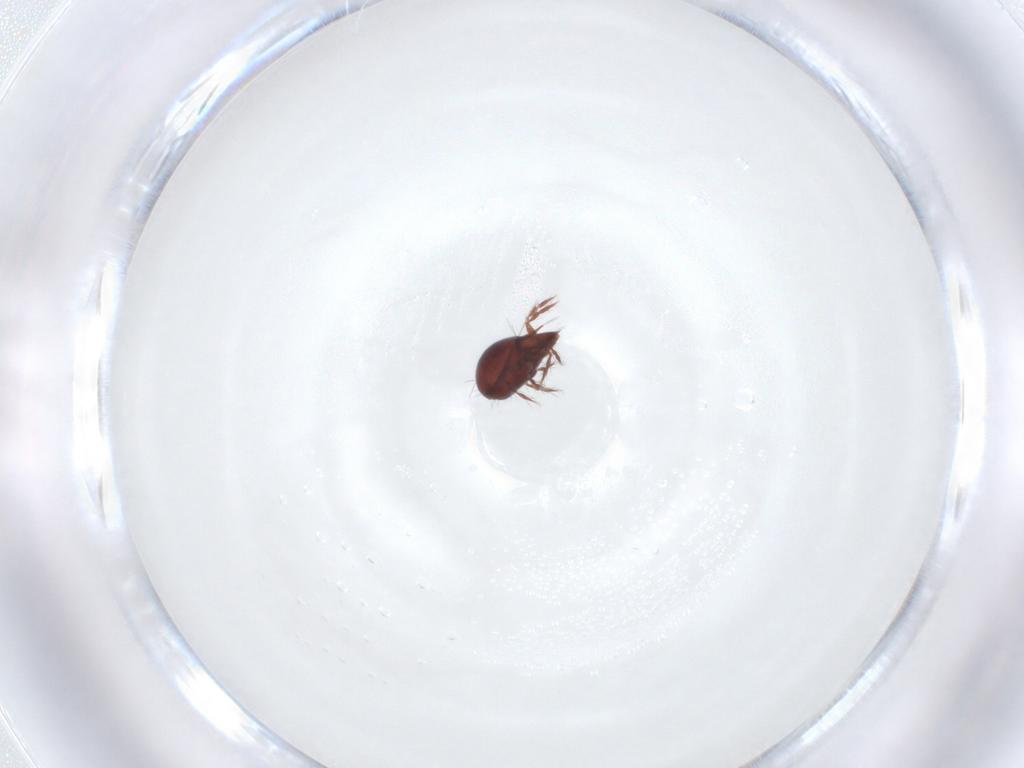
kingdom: Animalia
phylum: Arthropoda
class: Arachnida
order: Sarcoptiformes
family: Ceratoppiidae
